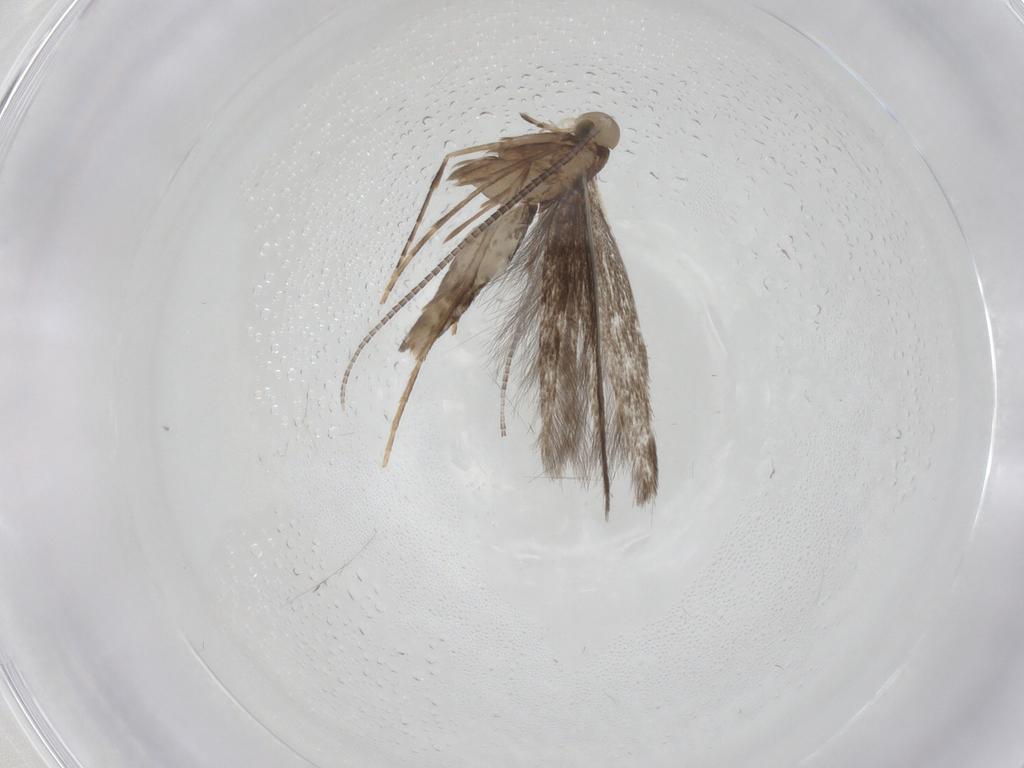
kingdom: Animalia
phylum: Arthropoda
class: Insecta
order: Lepidoptera
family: Gracillariidae
